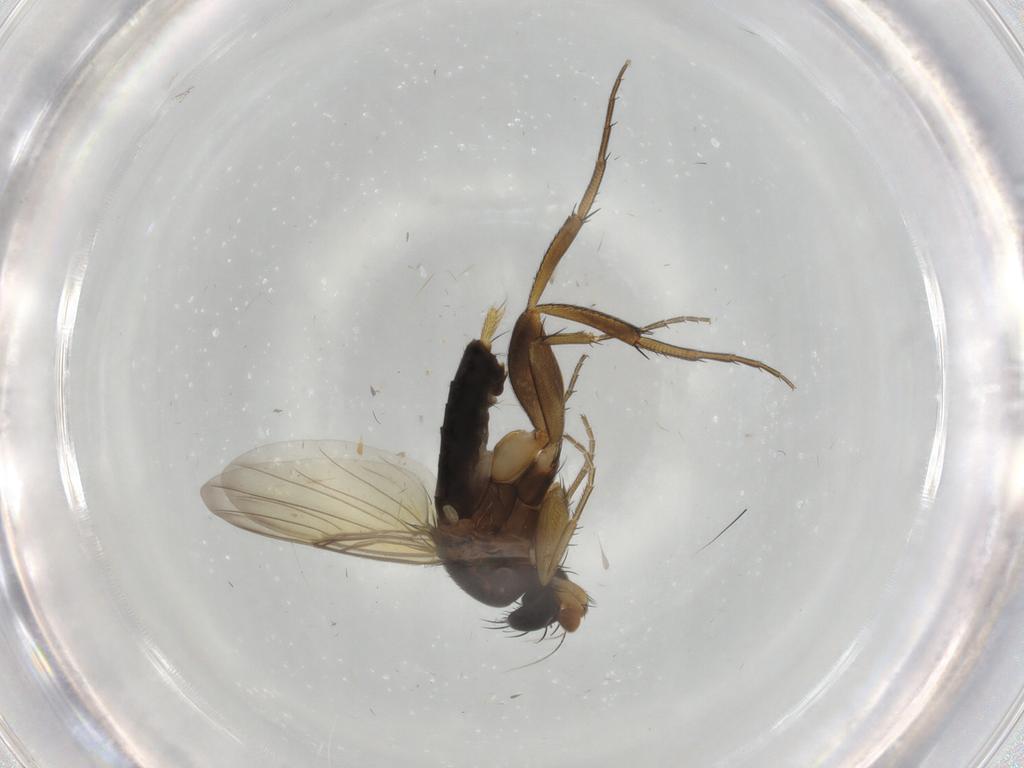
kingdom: Animalia
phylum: Arthropoda
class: Insecta
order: Diptera
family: Phoridae
